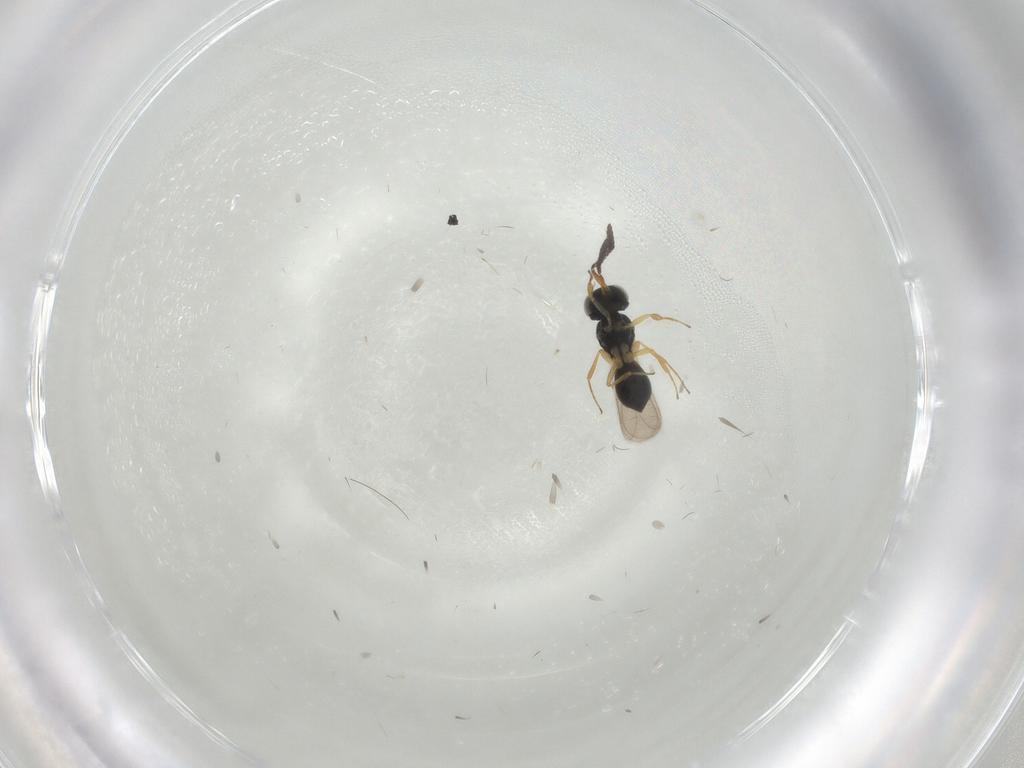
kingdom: Animalia
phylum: Arthropoda
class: Insecta
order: Hymenoptera
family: Scelionidae
